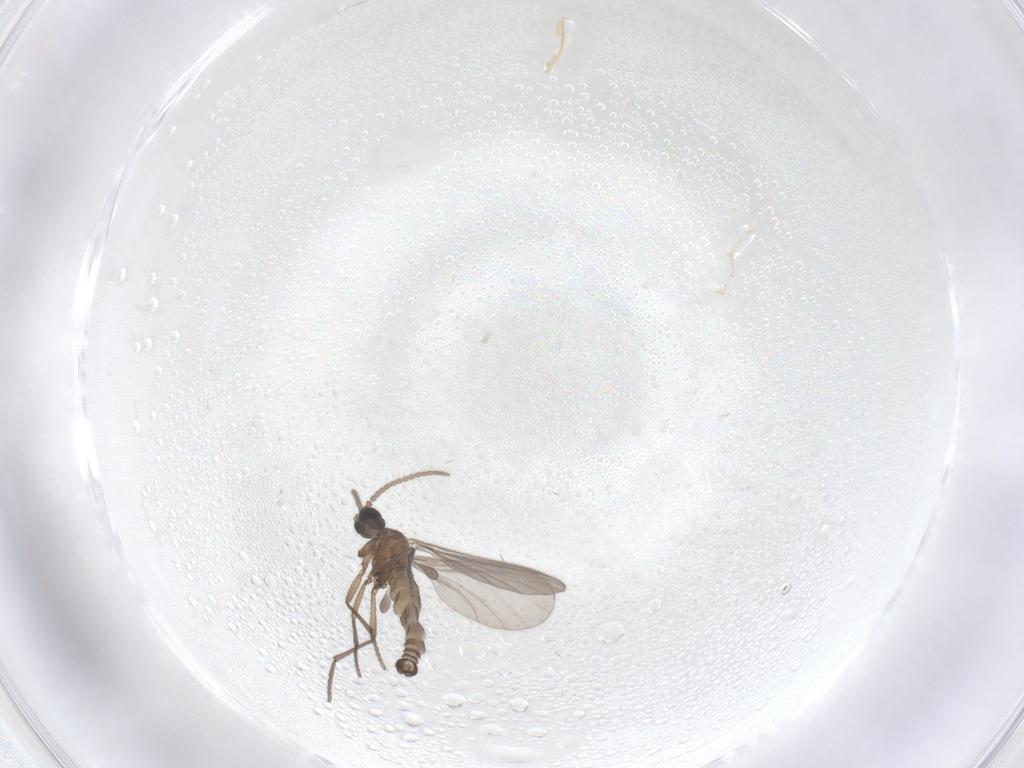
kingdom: Animalia
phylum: Arthropoda
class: Insecta
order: Diptera
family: Sciaridae
